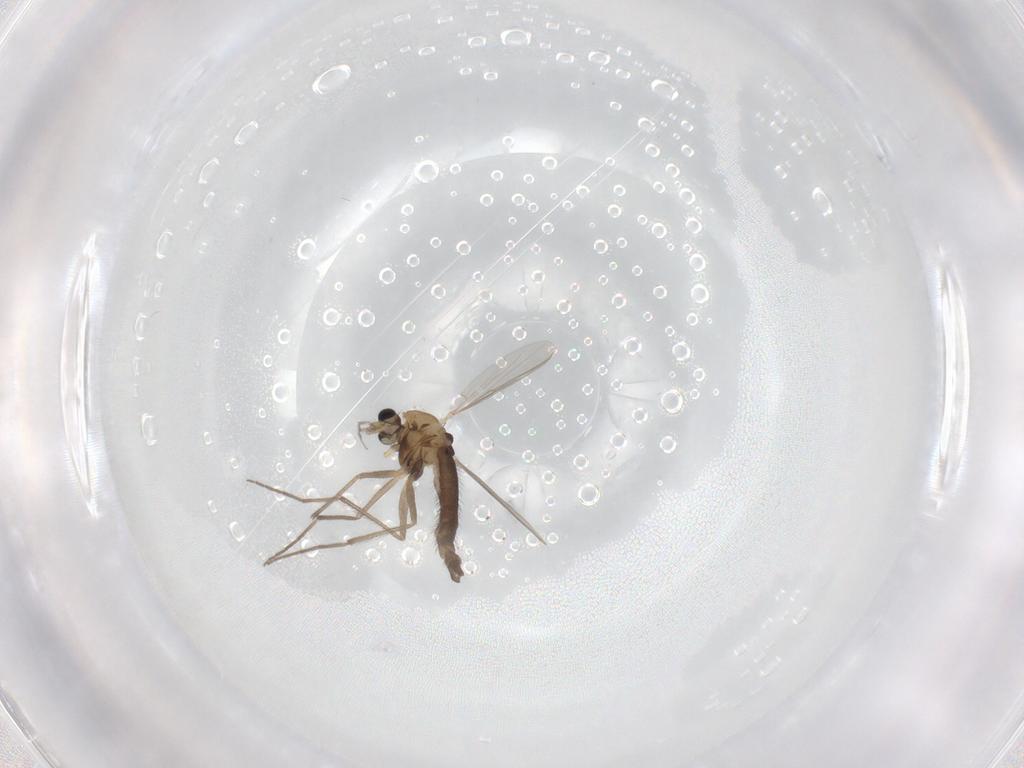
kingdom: Animalia
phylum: Arthropoda
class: Insecta
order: Diptera
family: Chironomidae
